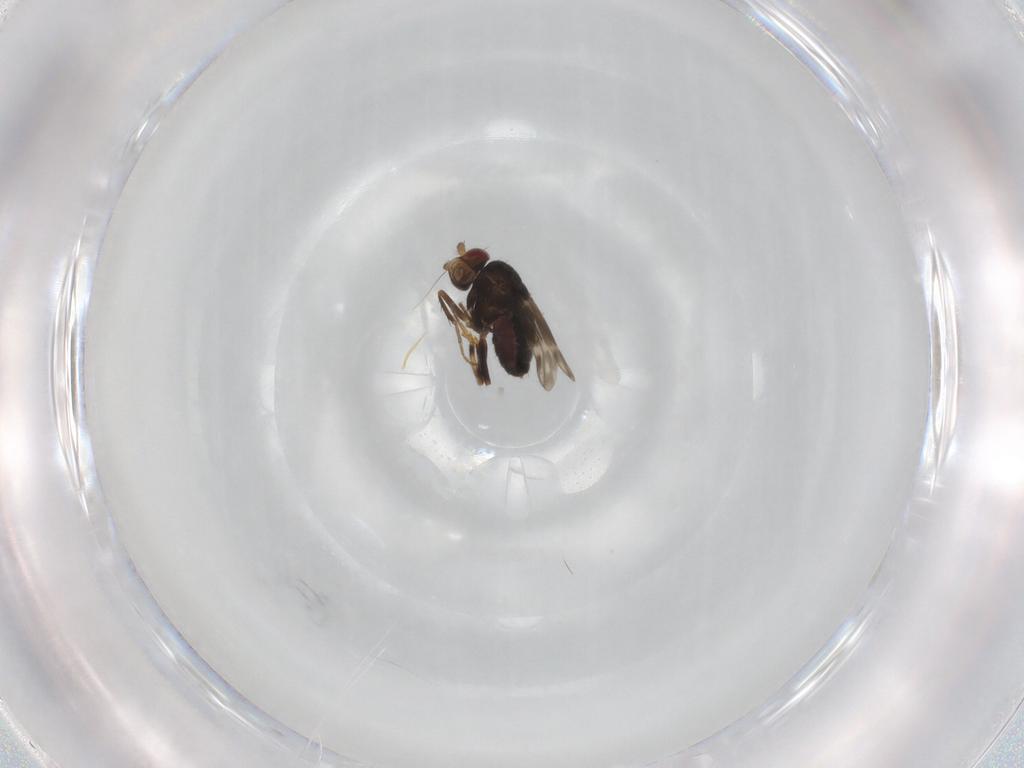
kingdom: Animalia
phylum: Arthropoda
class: Insecta
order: Diptera
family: Sphaeroceridae
